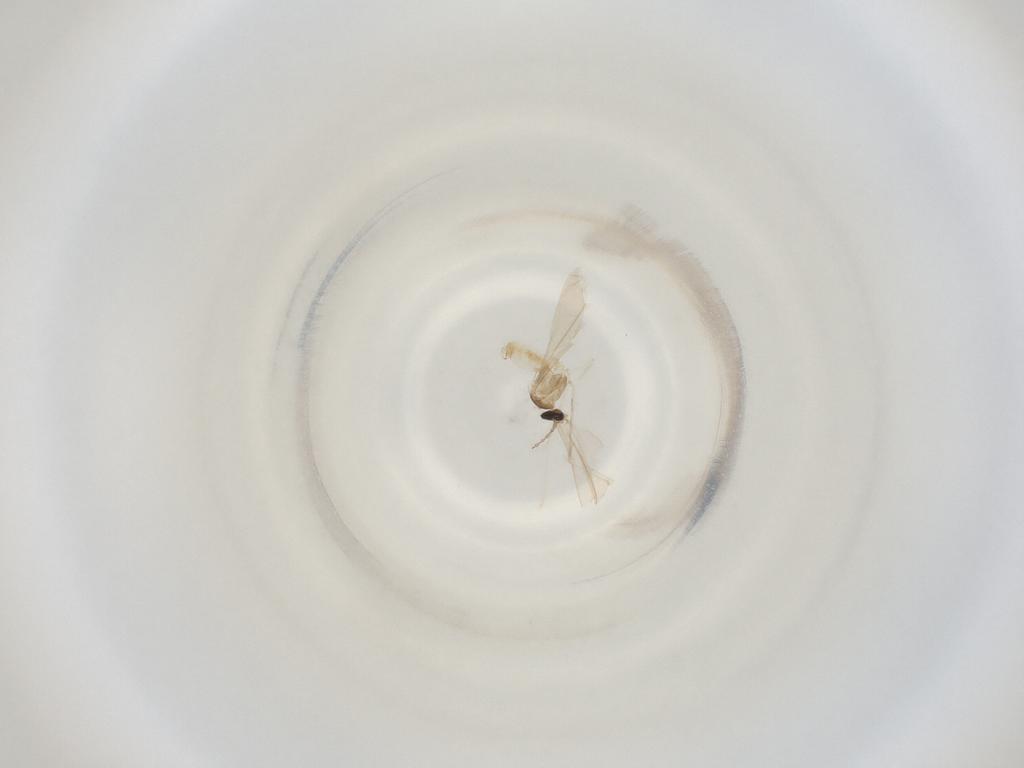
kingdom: Animalia
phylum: Arthropoda
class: Insecta
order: Diptera
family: Cecidomyiidae
